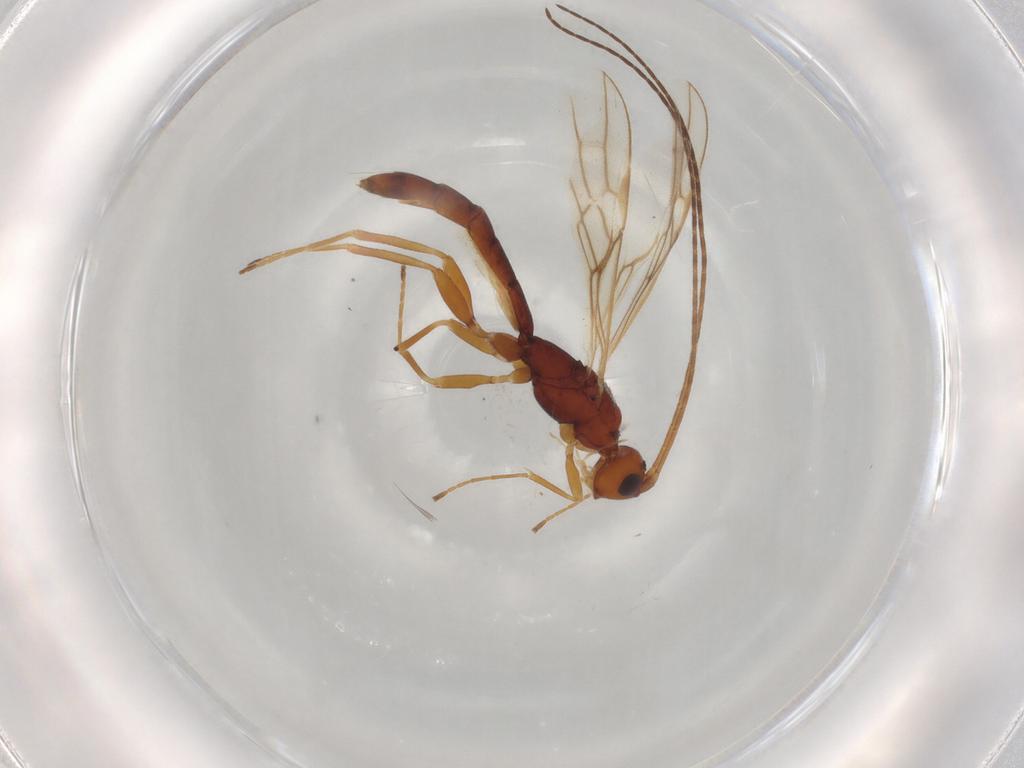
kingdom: Animalia
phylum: Arthropoda
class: Insecta
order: Hymenoptera
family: Braconidae
